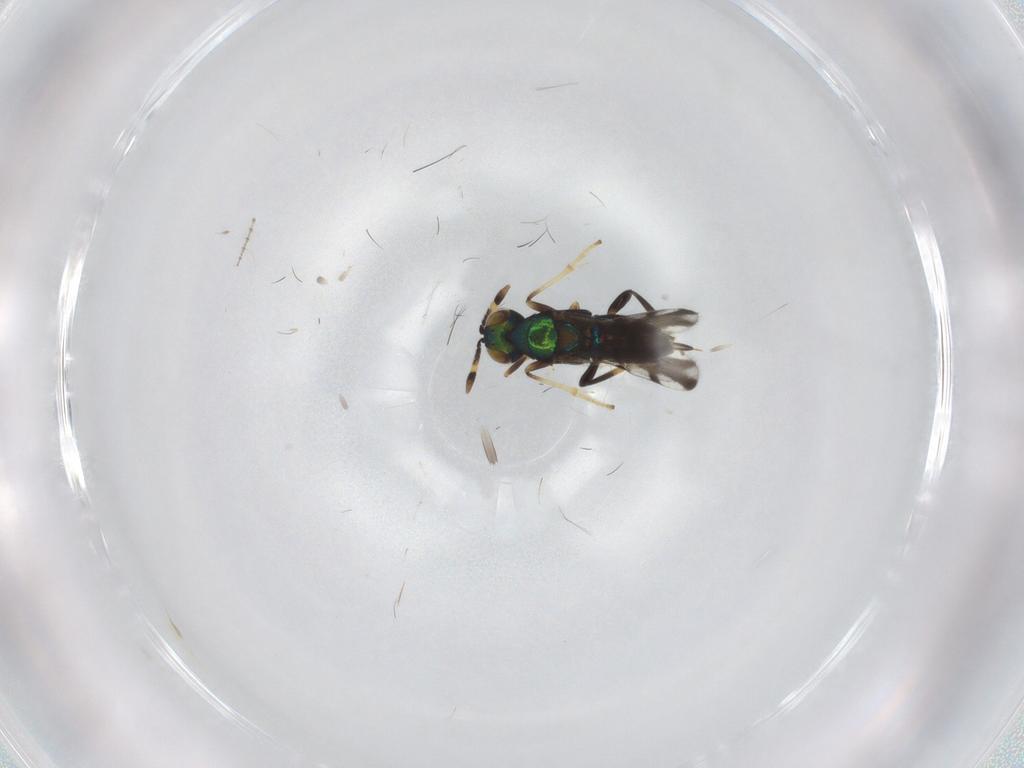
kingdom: Animalia
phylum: Arthropoda
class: Insecta
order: Hymenoptera
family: Encyrtidae
